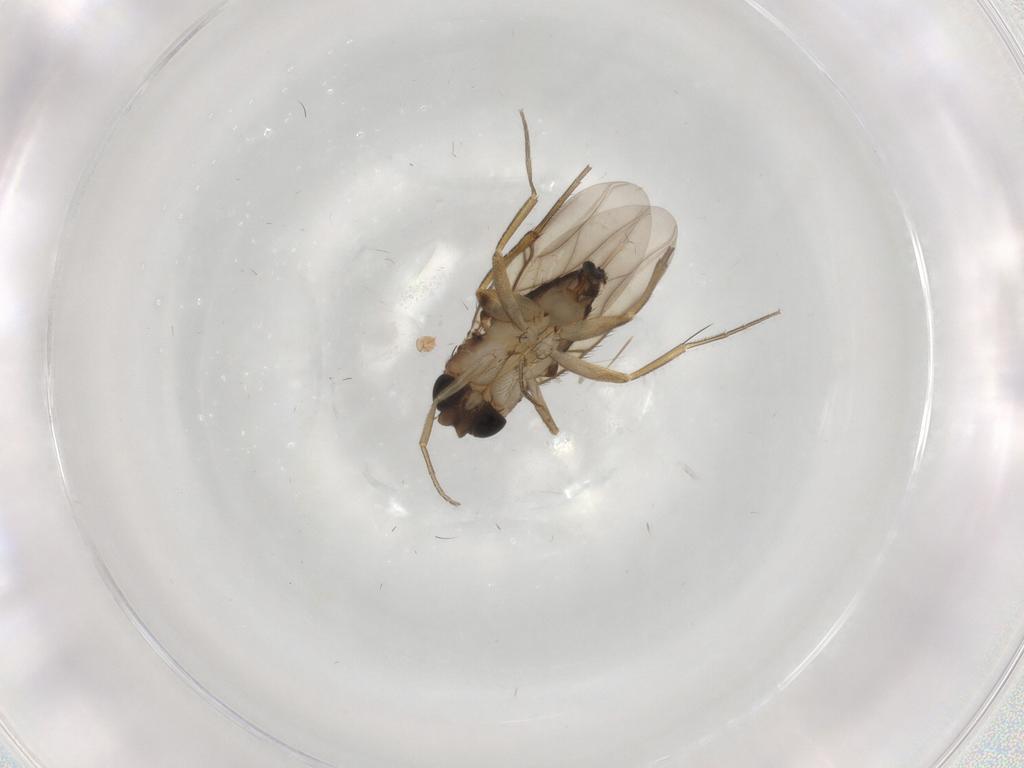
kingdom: Animalia
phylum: Arthropoda
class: Insecta
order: Diptera
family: Phoridae
